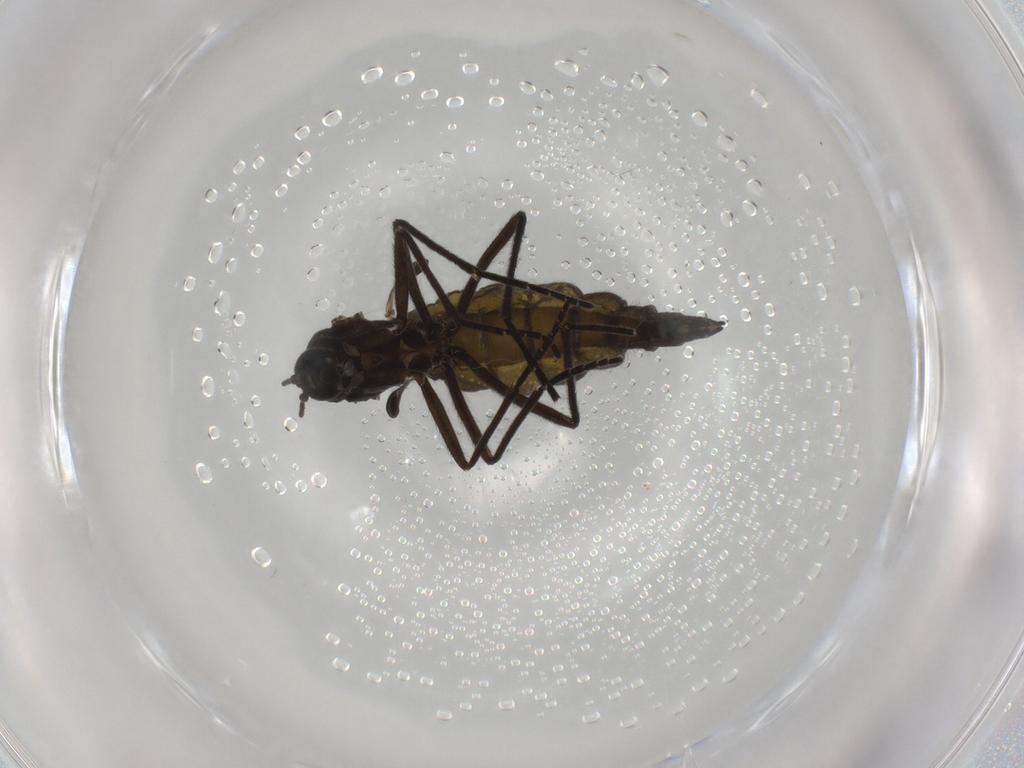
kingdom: Animalia
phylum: Arthropoda
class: Insecta
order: Diptera
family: Sciaridae
